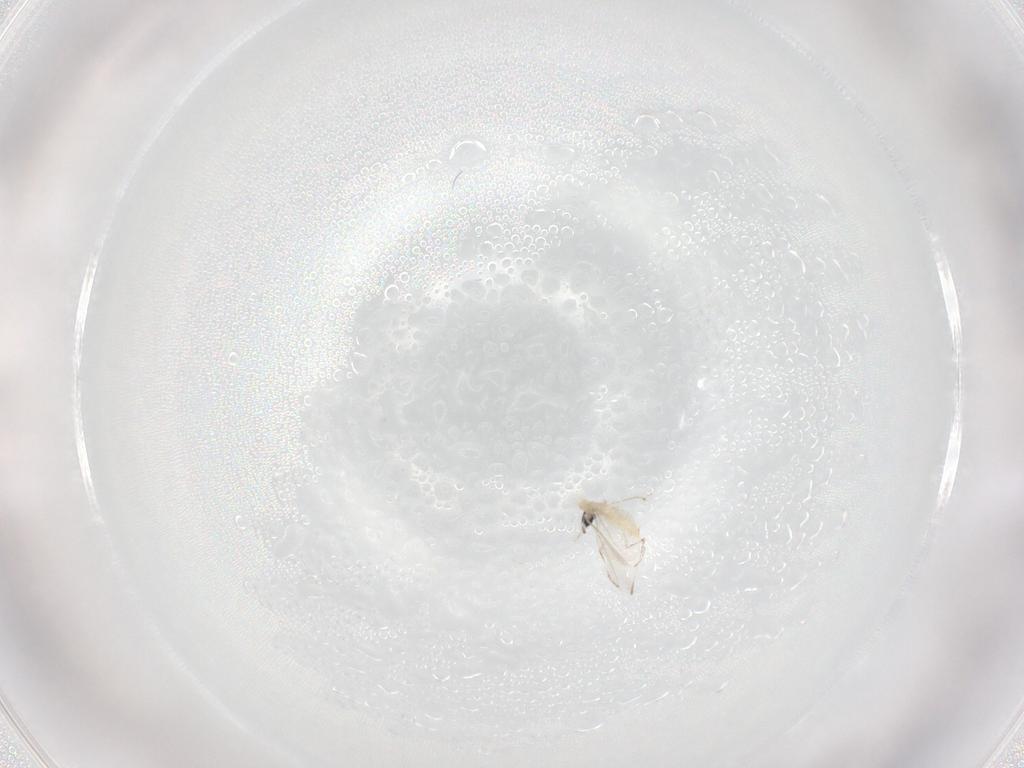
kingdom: Animalia
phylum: Arthropoda
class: Insecta
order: Diptera
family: Cecidomyiidae
